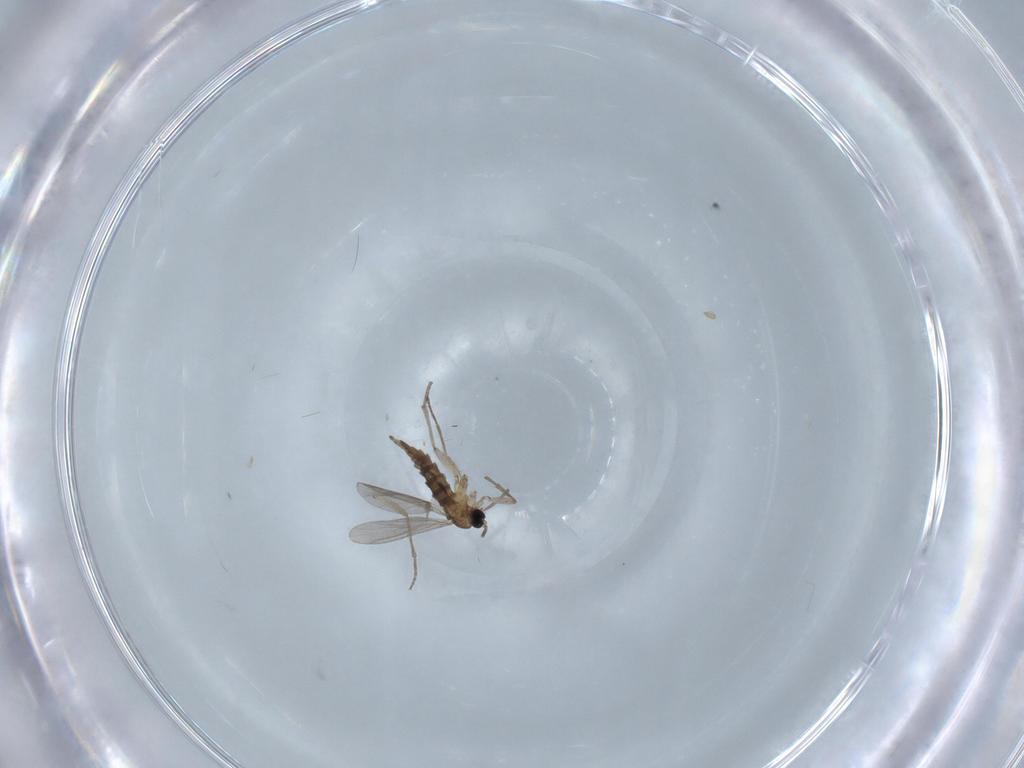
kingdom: Animalia
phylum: Arthropoda
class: Insecta
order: Diptera
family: Sciaridae
